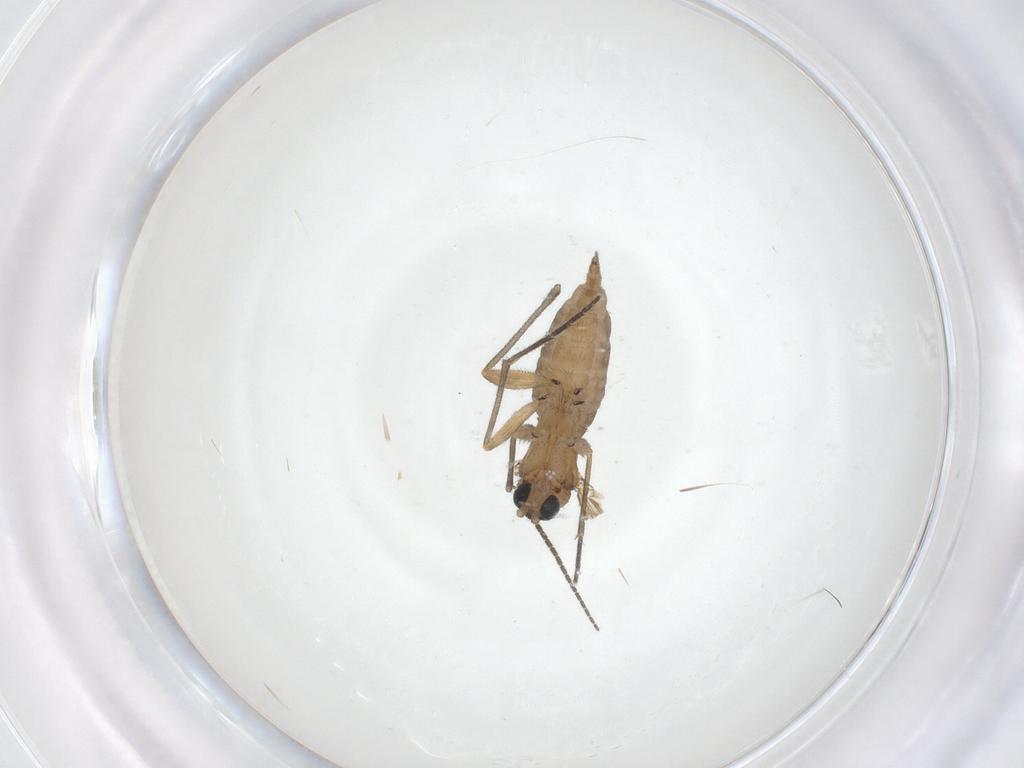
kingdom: Animalia
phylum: Arthropoda
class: Insecta
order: Diptera
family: Sciaridae
